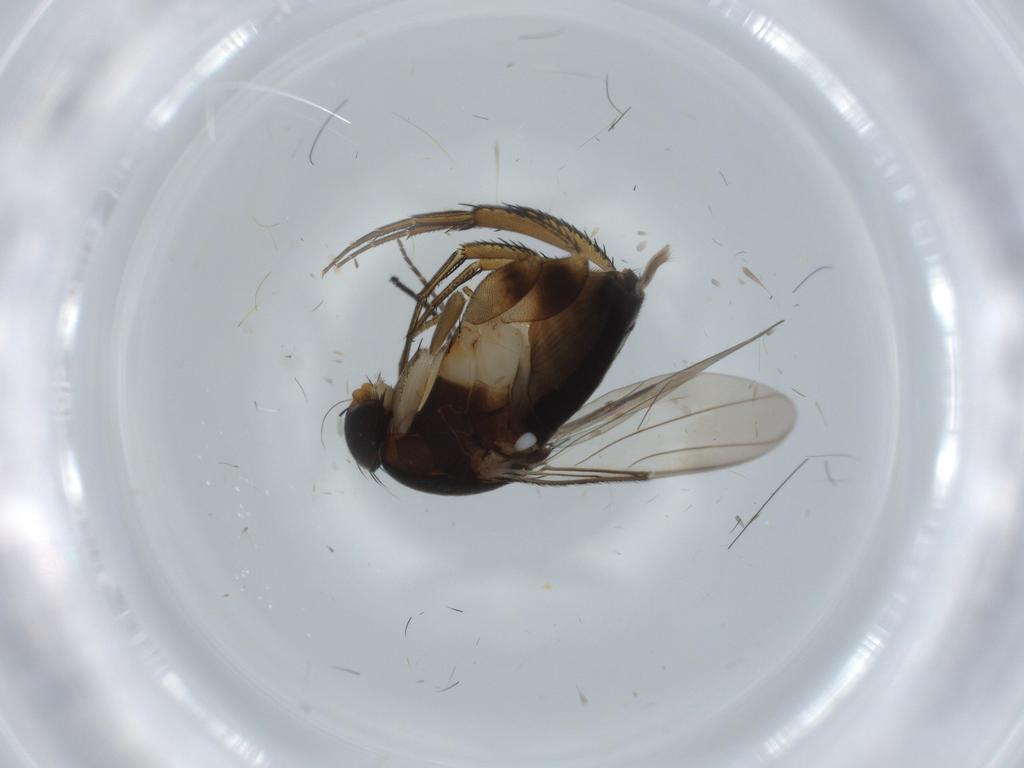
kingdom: Animalia
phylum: Arthropoda
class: Insecta
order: Diptera
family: Sciaridae
